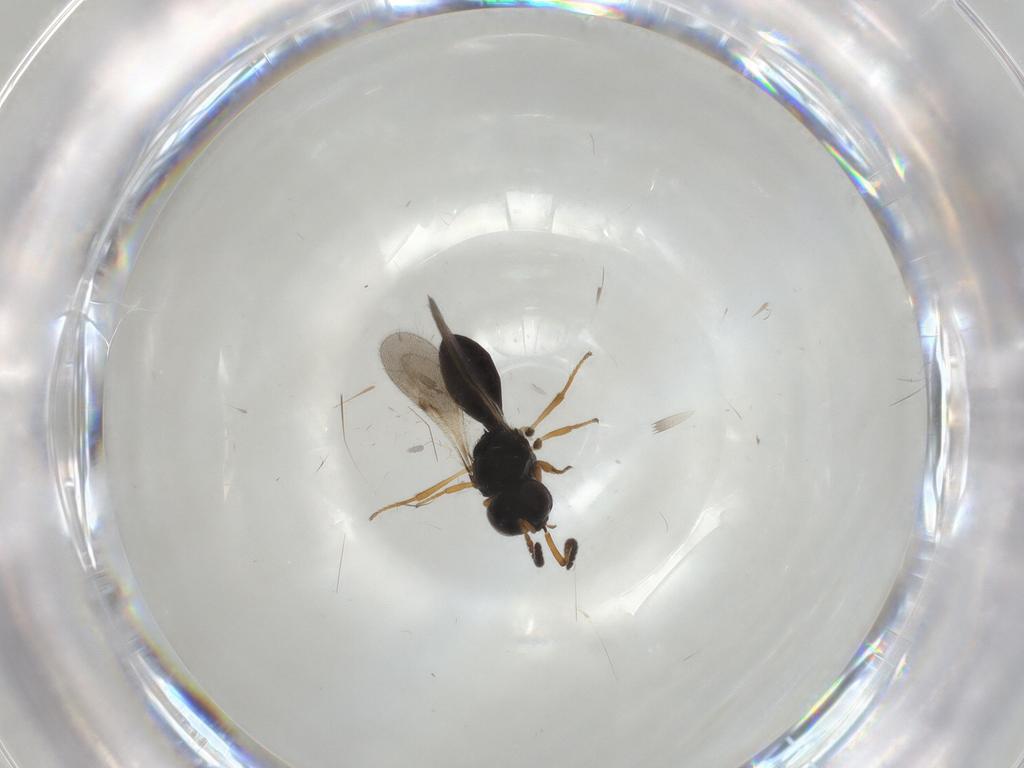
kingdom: Animalia
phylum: Arthropoda
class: Insecta
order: Hymenoptera
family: Scelionidae
